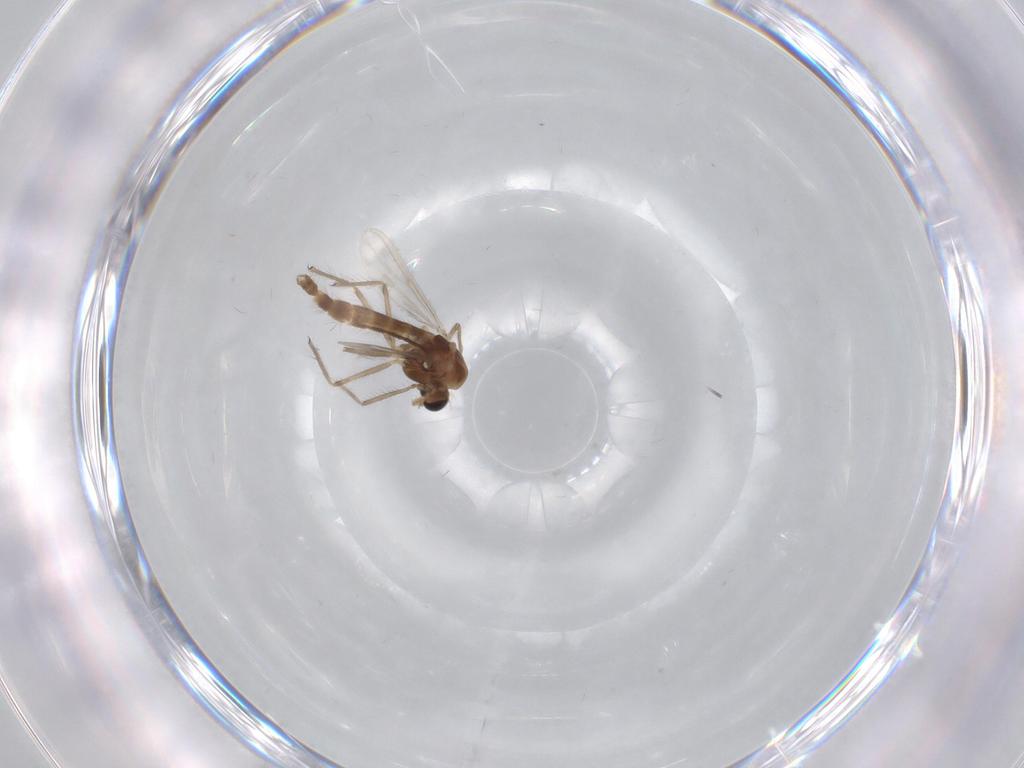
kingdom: Animalia
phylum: Arthropoda
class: Insecta
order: Diptera
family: Chironomidae
